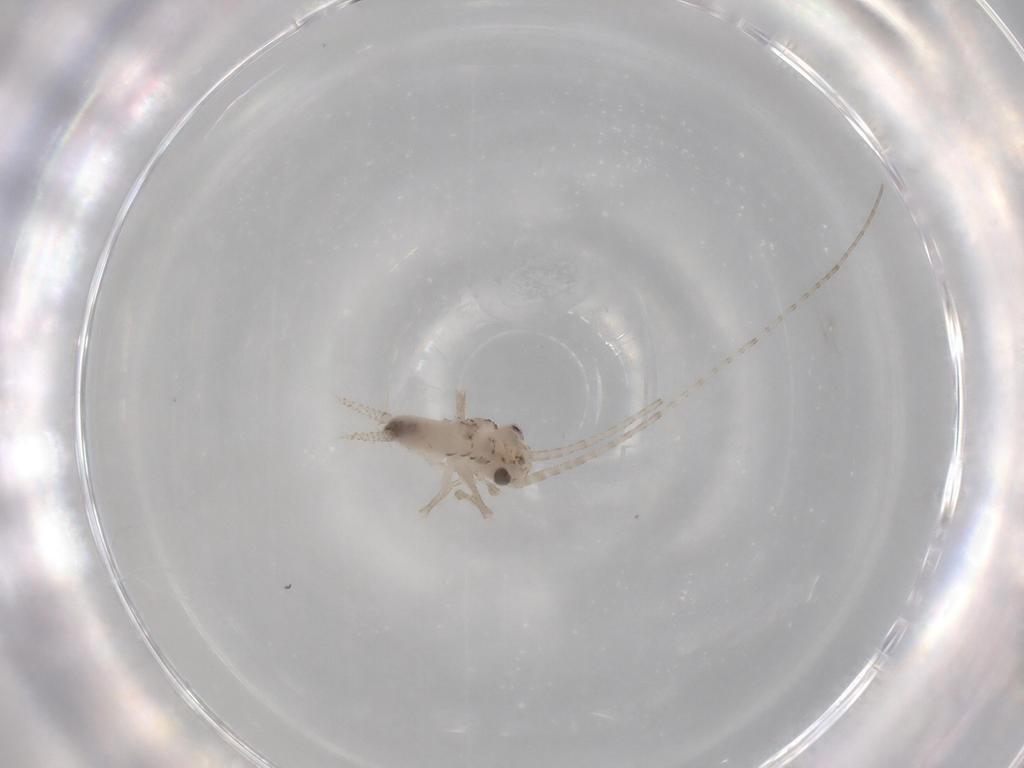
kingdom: Animalia
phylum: Arthropoda
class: Insecta
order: Orthoptera
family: Trigonidiidae
